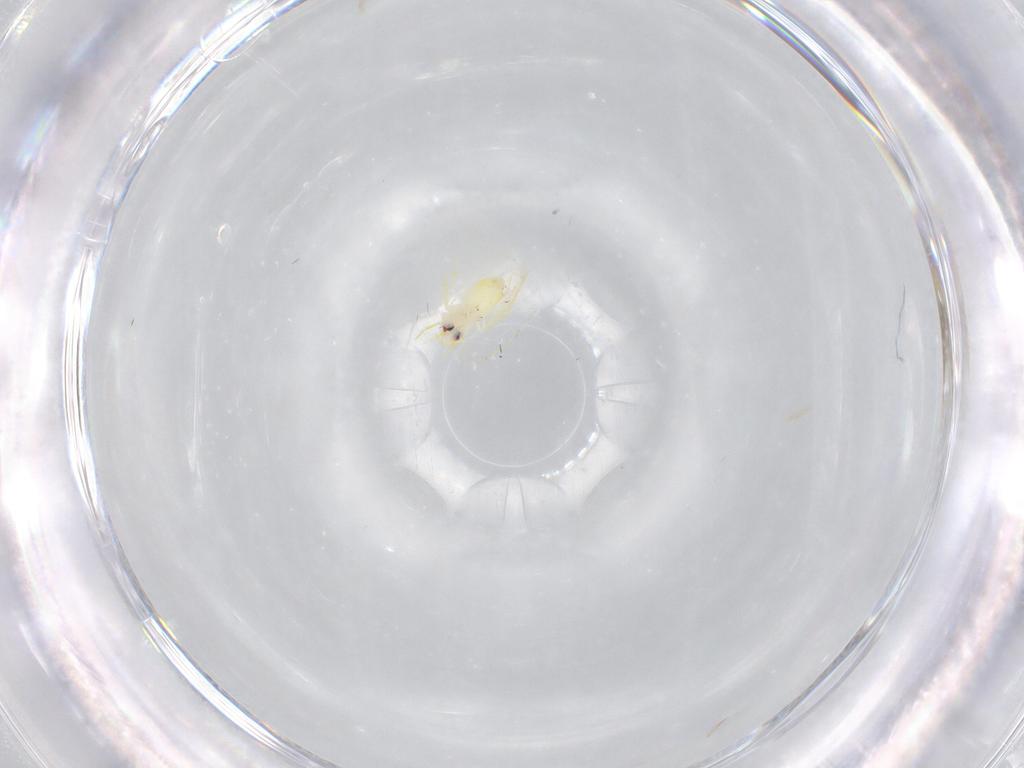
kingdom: Animalia
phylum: Arthropoda
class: Insecta
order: Hemiptera
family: Aleyrodidae
